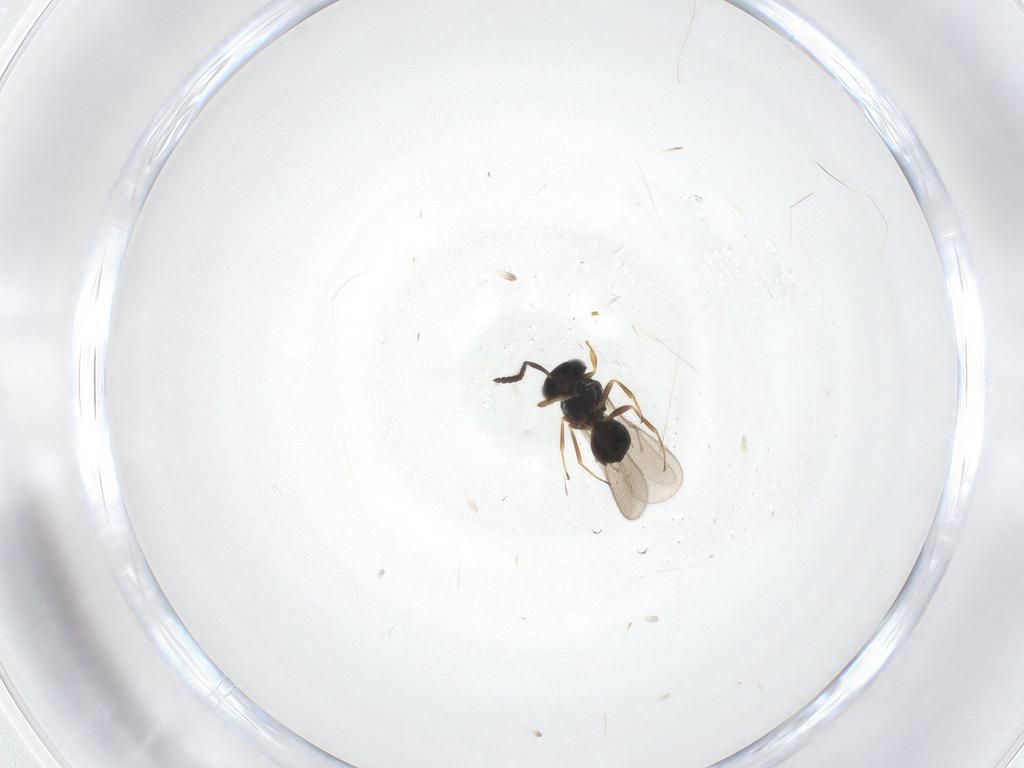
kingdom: Animalia
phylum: Arthropoda
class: Insecta
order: Hymenoptera
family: Scelionidae
